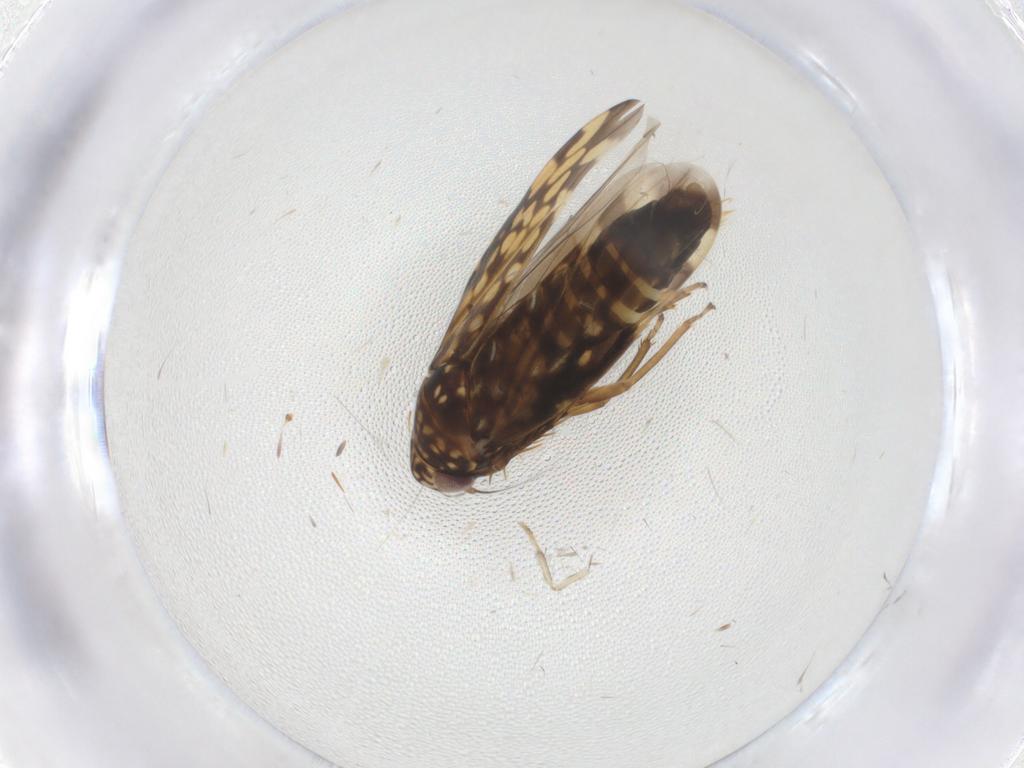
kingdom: Animalia
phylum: Arthropoda
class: Insecta
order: Hemiptera
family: Cicadellidae
